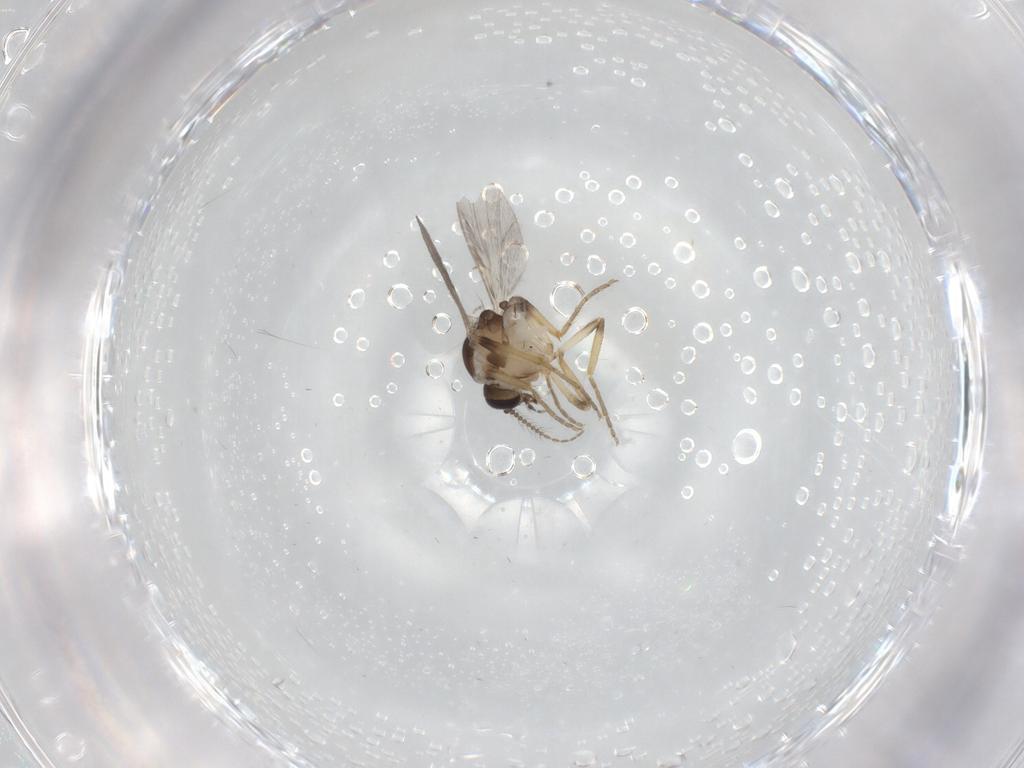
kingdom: Animalia
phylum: Arthropoda
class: Insecta
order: Diptera
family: Ceratopogonidae
